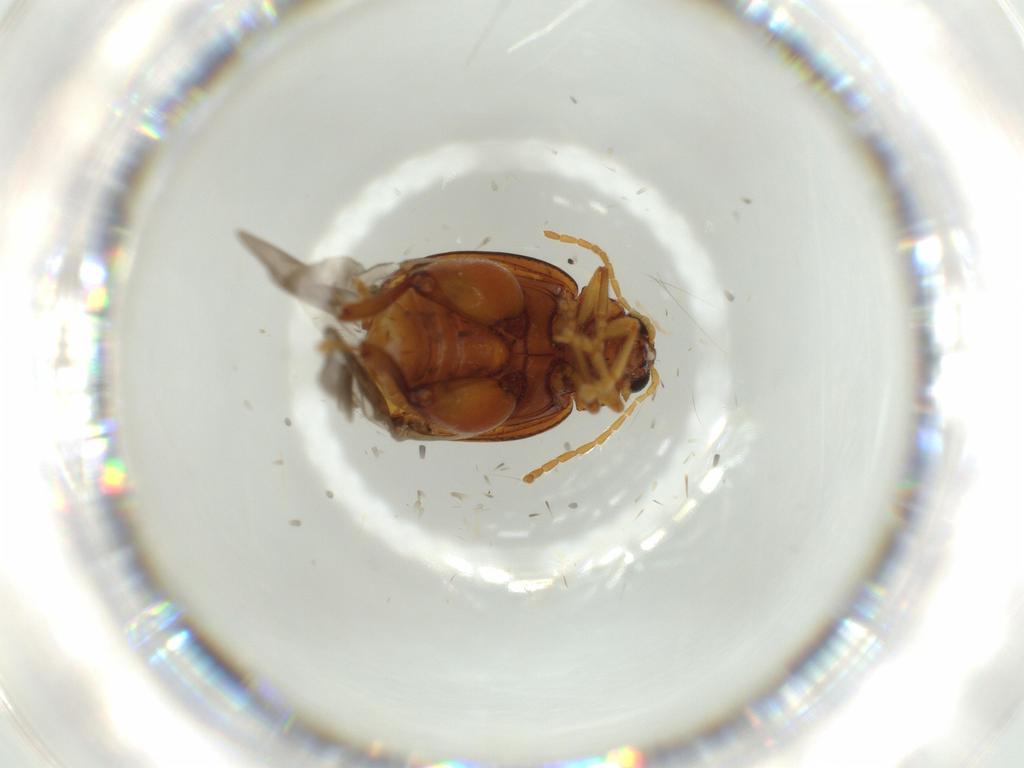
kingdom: Animalia
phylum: Arthropoda
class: Insecta
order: Coleoptera
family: Chrysomelidae
